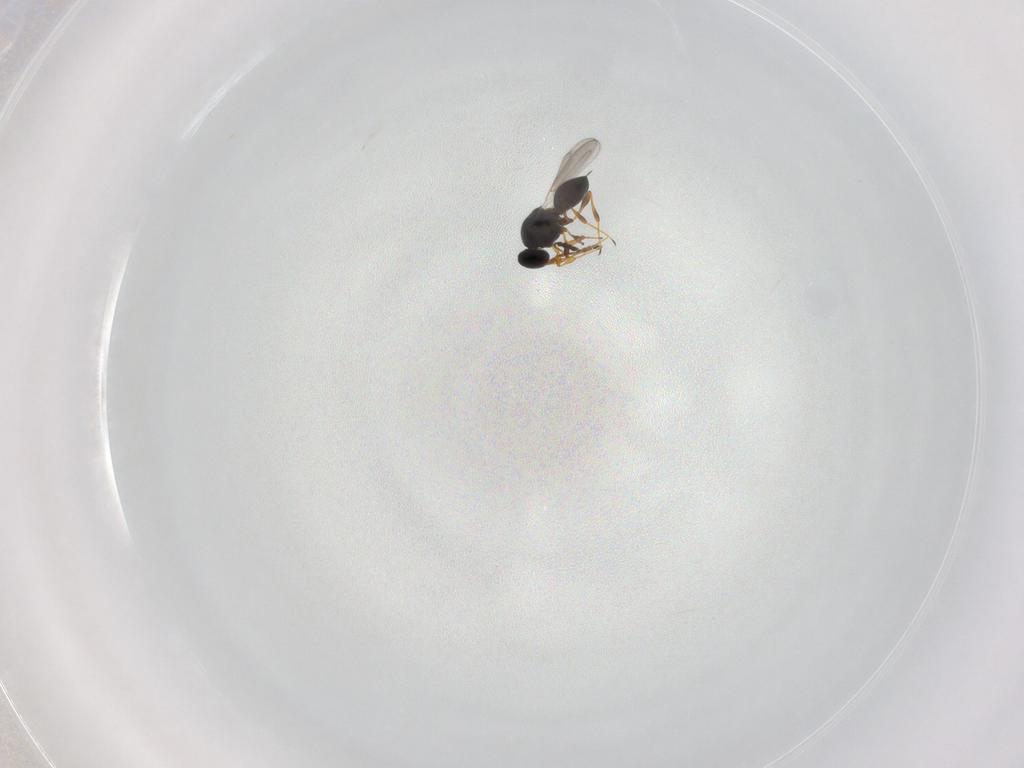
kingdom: Animalia
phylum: Arthropoda
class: Insecta
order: Hymenoptera
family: Platygastridae
